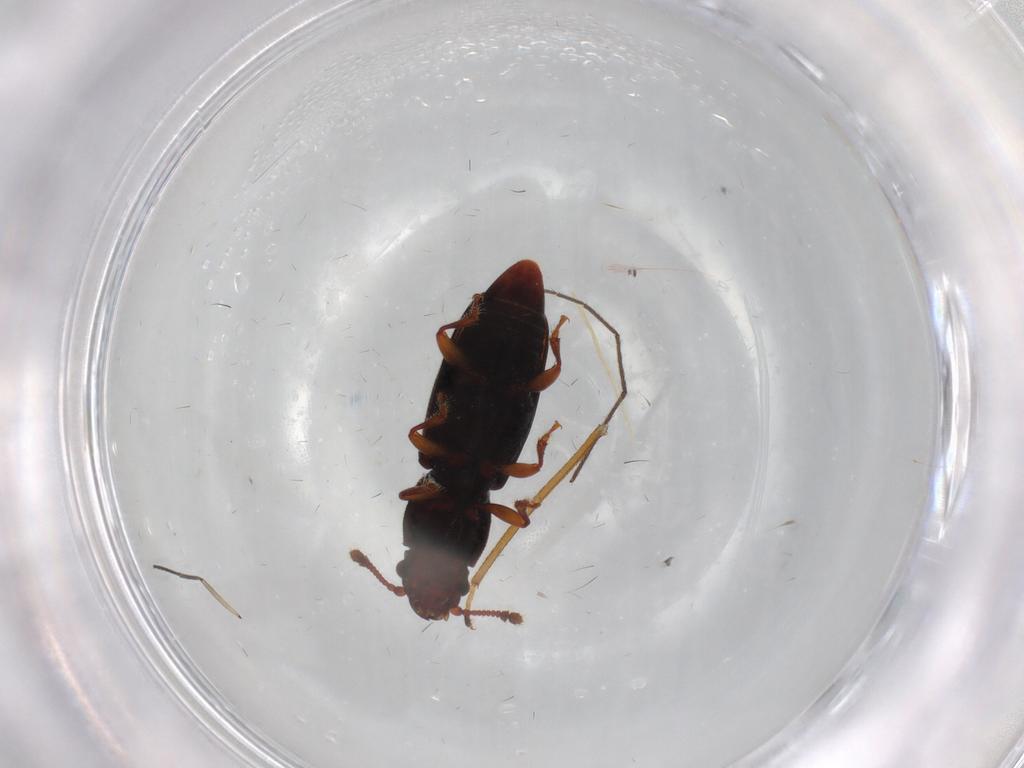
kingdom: Animalia
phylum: Arthropoda
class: Insecta
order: Coleoptera
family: Monotomidae
